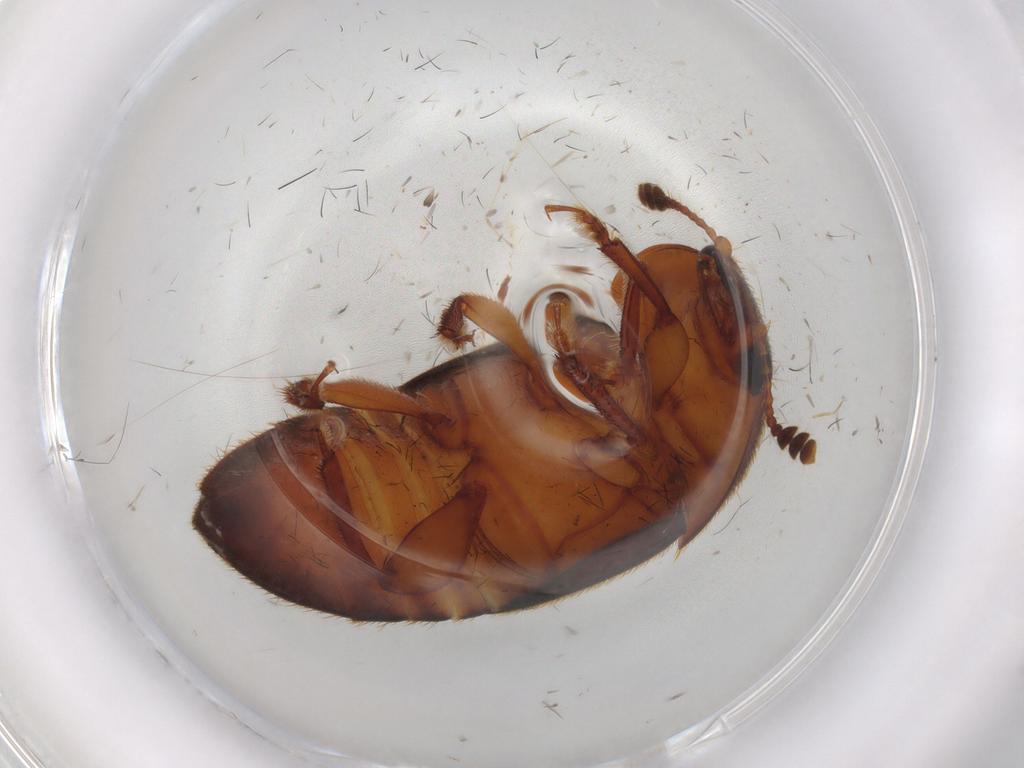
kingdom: Animalia
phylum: Arthropoda
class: Insecta
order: Coleoptera
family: Nitidulidae
